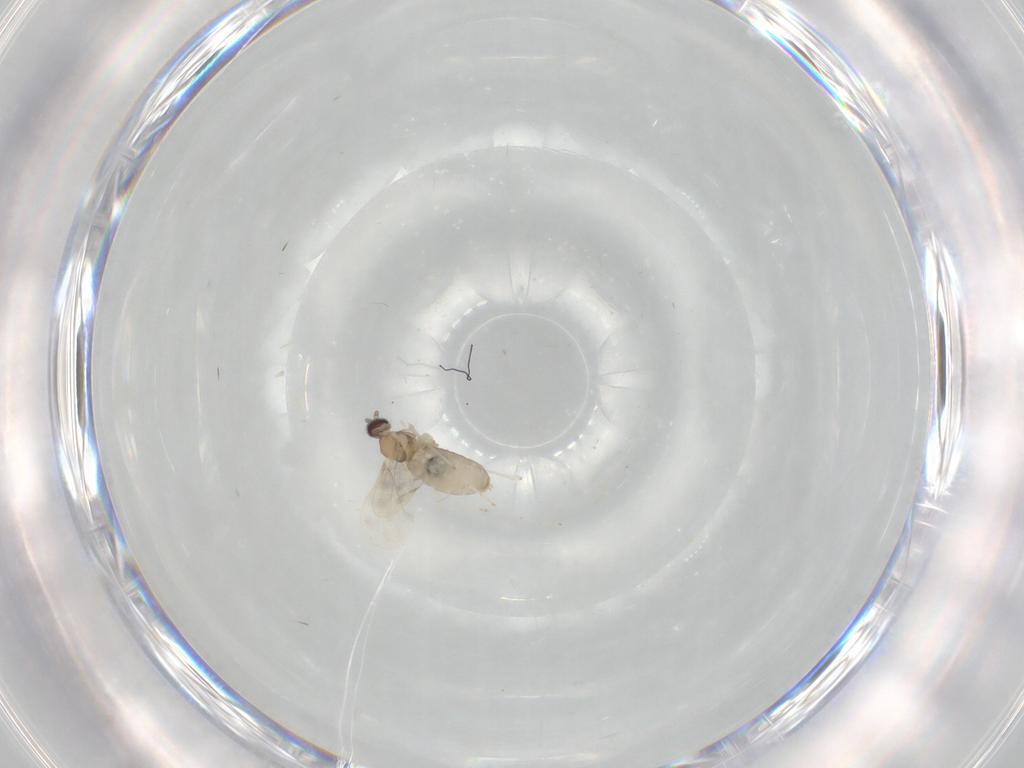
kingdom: Animalia
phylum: Arthropoda
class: Insecta
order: Diptera
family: Cecidomyiidae
